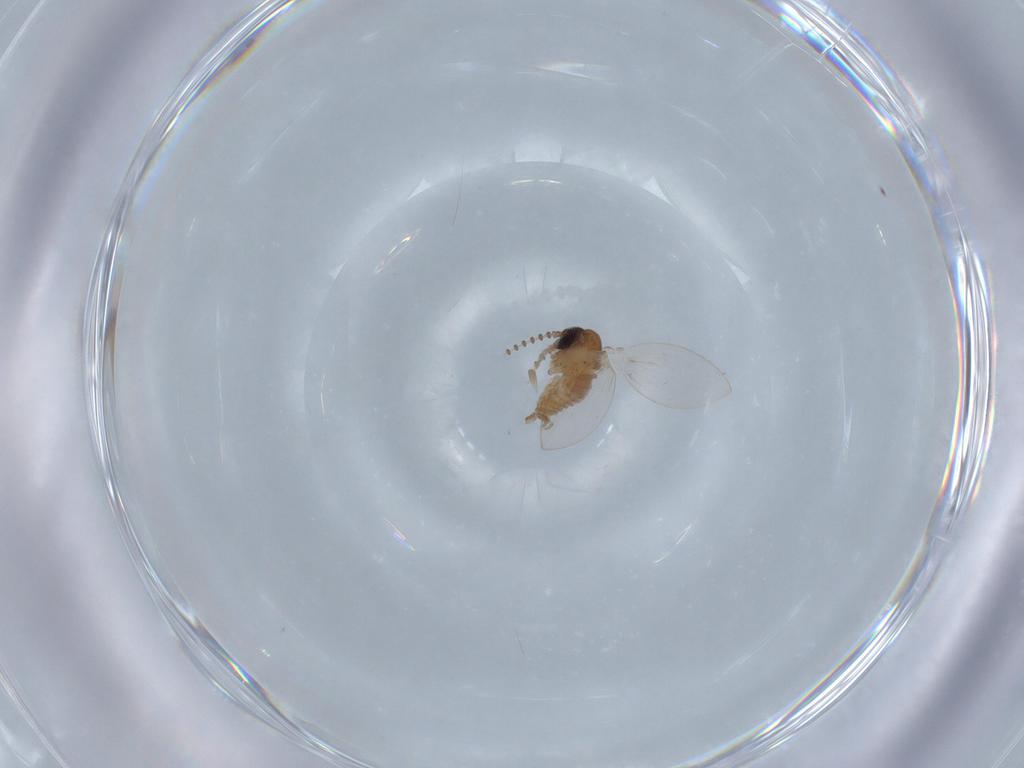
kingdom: Animalia
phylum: Arthropoda
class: Insecta
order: Diptera
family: Psychodidae
